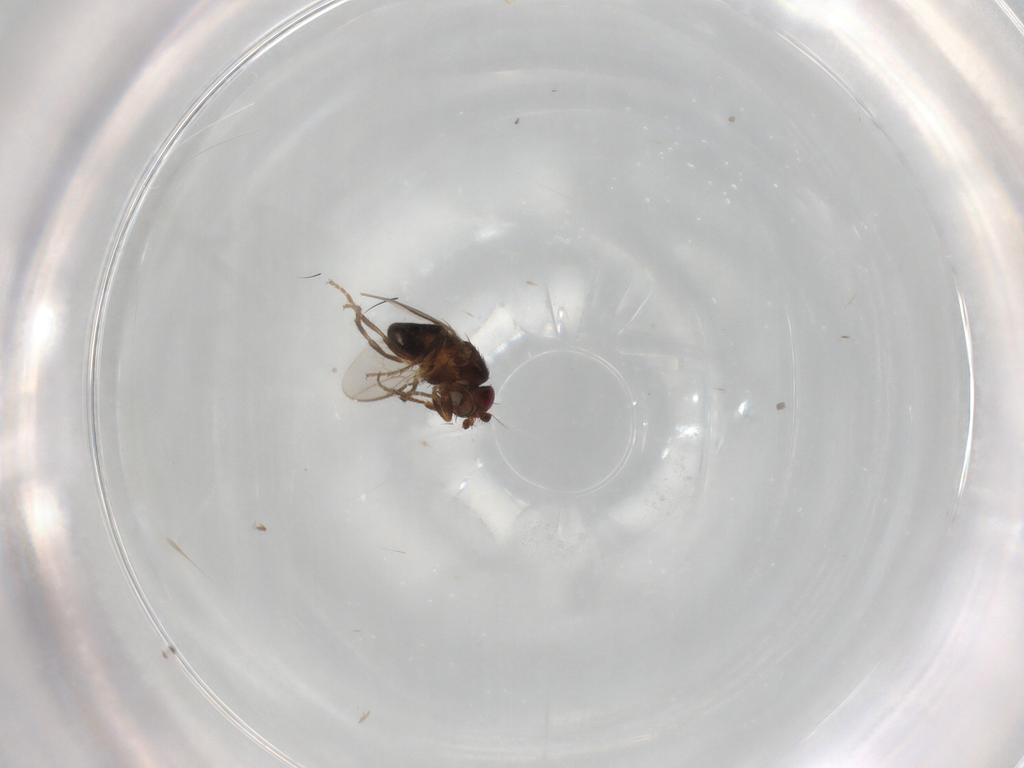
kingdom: Animalia
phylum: Arthropoda
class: Insecta
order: Diptera
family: Sphaeroceridae
